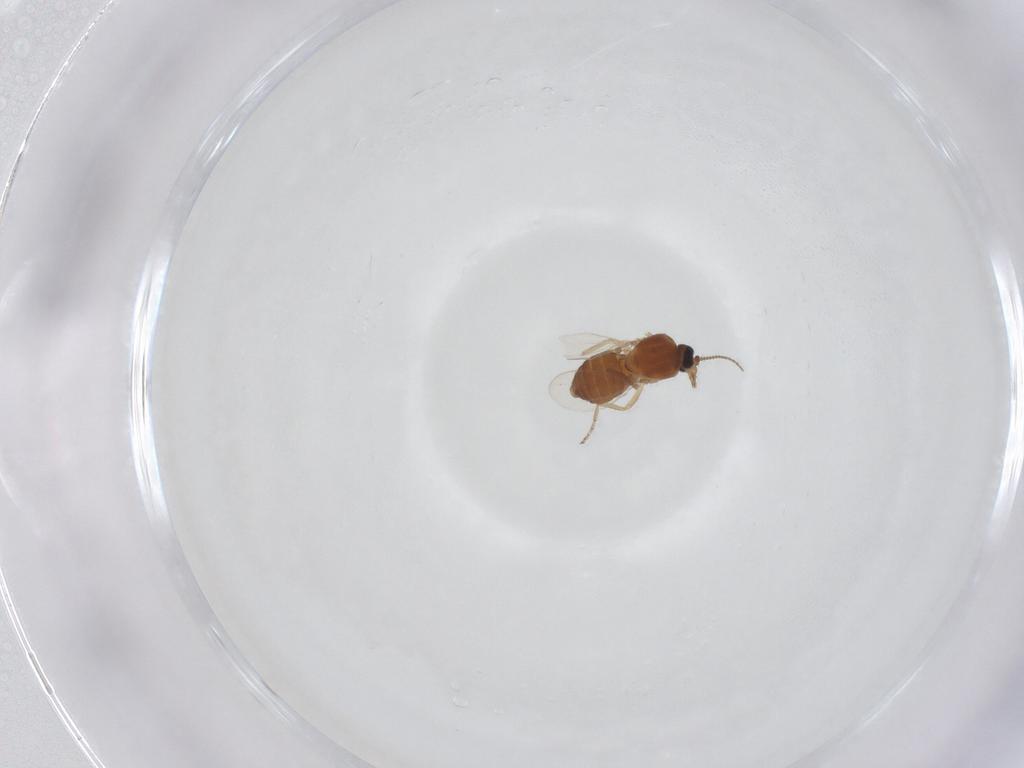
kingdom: Animalia
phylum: Arthropoda
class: Insecta
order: Diptera
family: Ceratopogonidae
